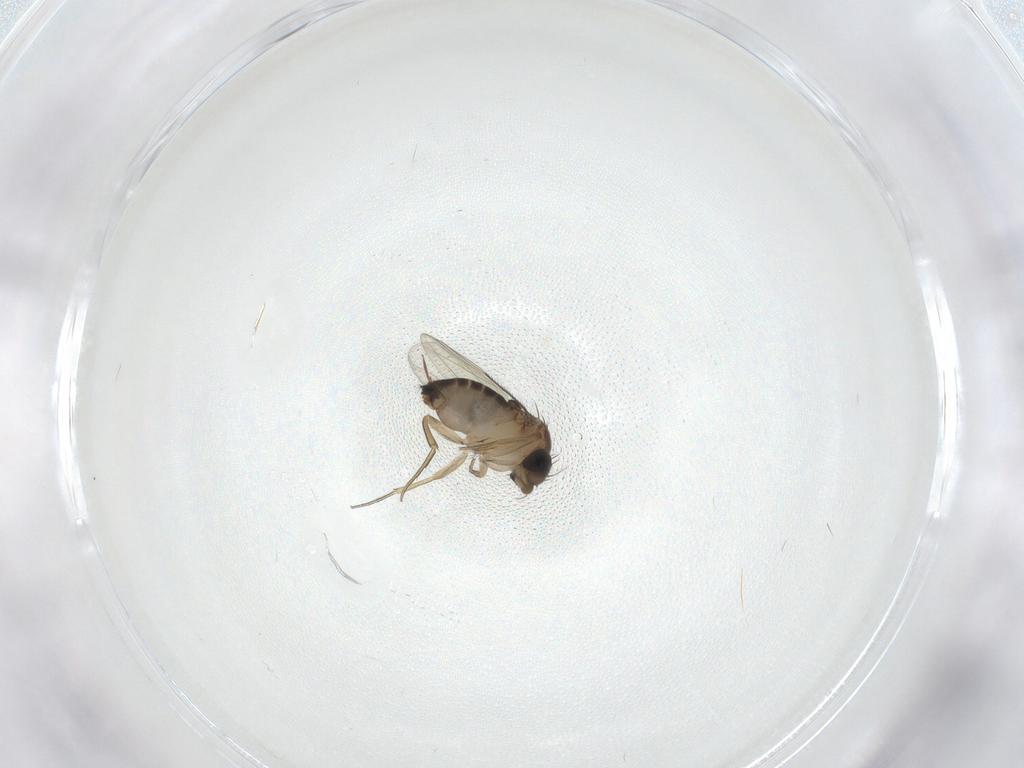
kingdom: Animalia
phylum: Arthropoda
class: Insecta
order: Diptera
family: Phoridae
